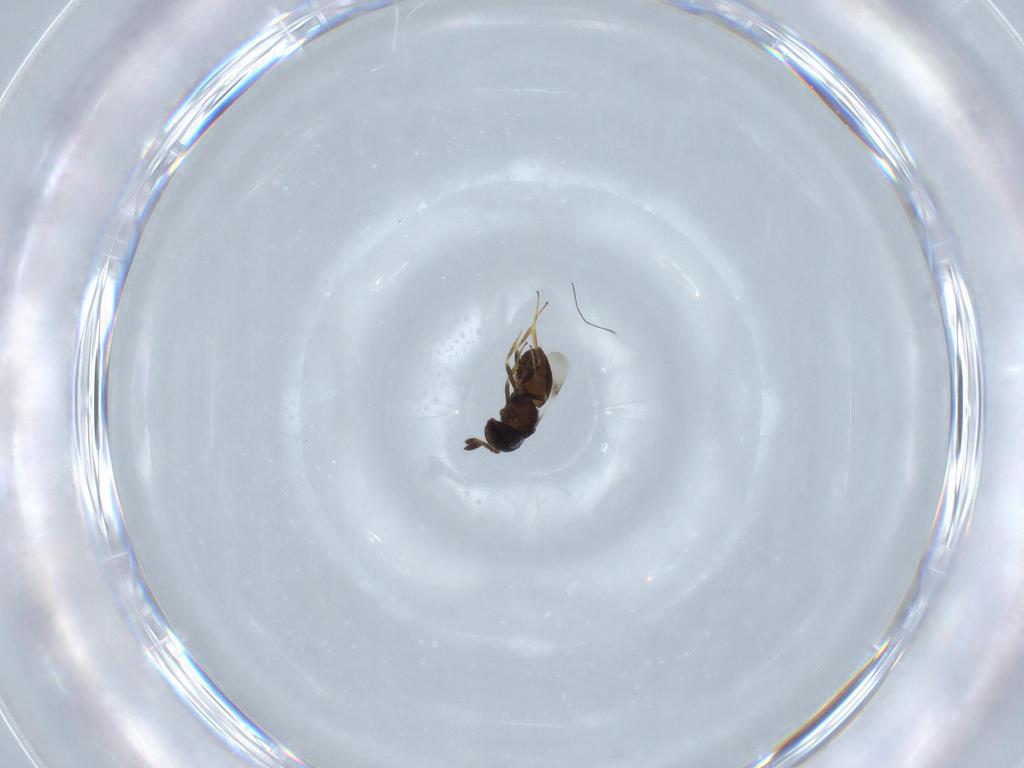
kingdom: Animalia
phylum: Arthropoda
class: Insecta
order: Hymenoptera
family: Scelionidae
